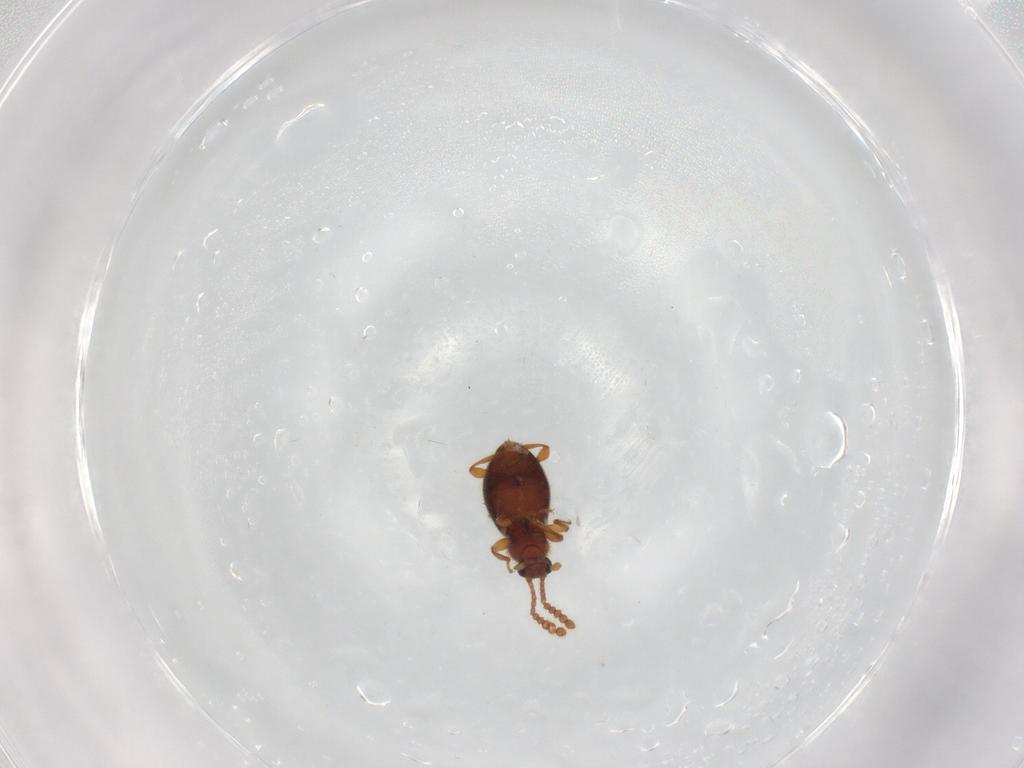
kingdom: Animalia
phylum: Arthropoda
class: Insecta
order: Coleoptera
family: Staphylinidae
